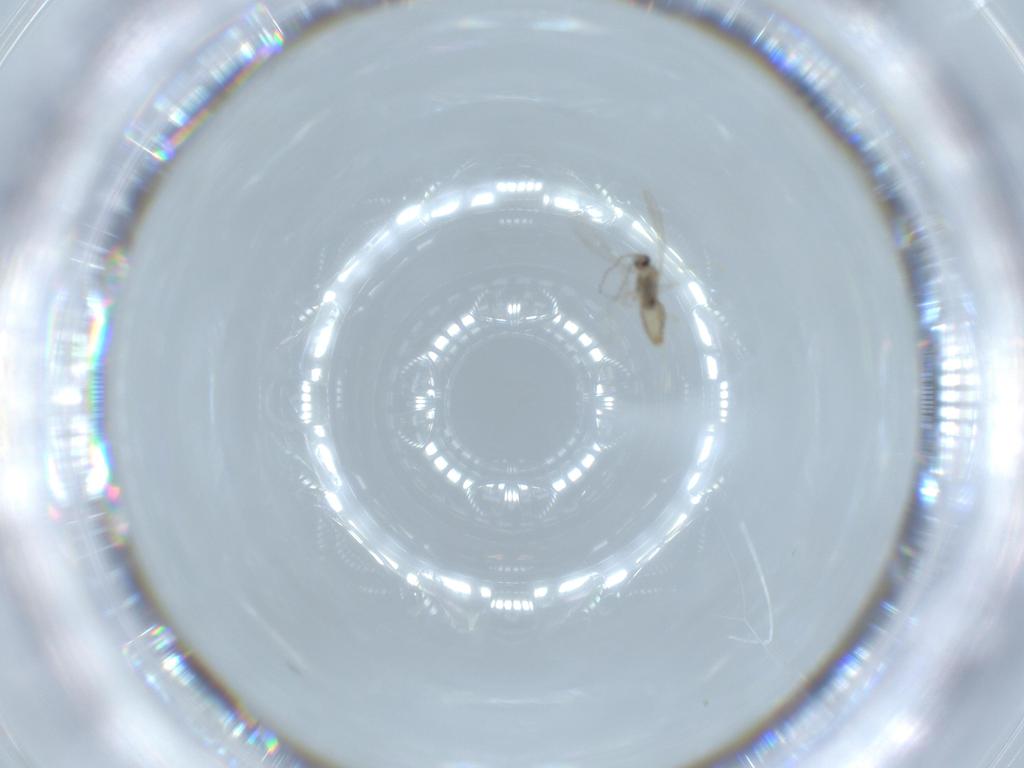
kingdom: Animalia
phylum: Arthropoda
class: Insecta
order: Diptera
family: Cecidomyiidae
